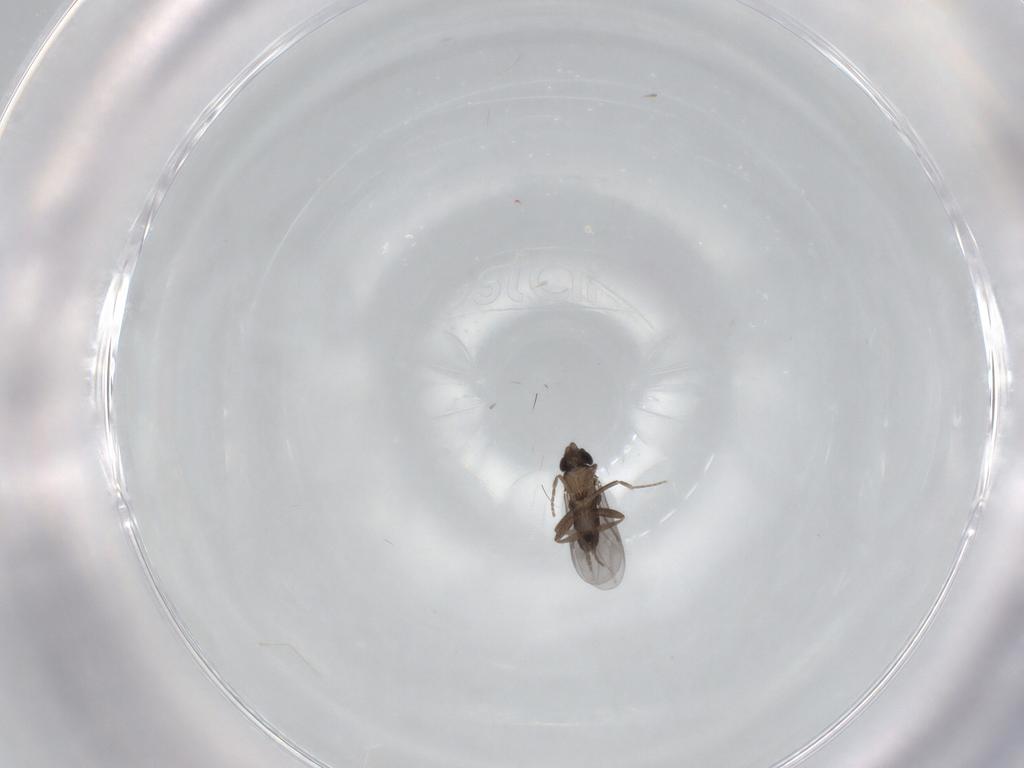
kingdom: Animalia
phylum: Arthropoda
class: Insecta
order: Diptera
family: Phoridae
